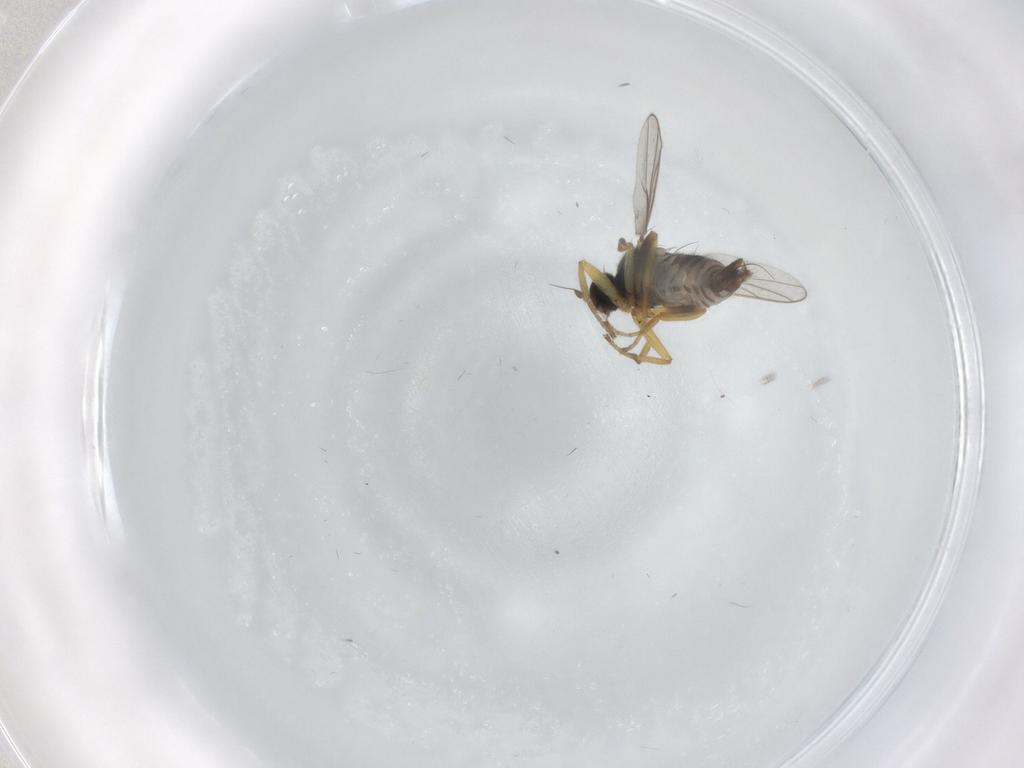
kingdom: Animalia
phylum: Arthropoda
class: Insecta
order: Diptera
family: Hybotidae
